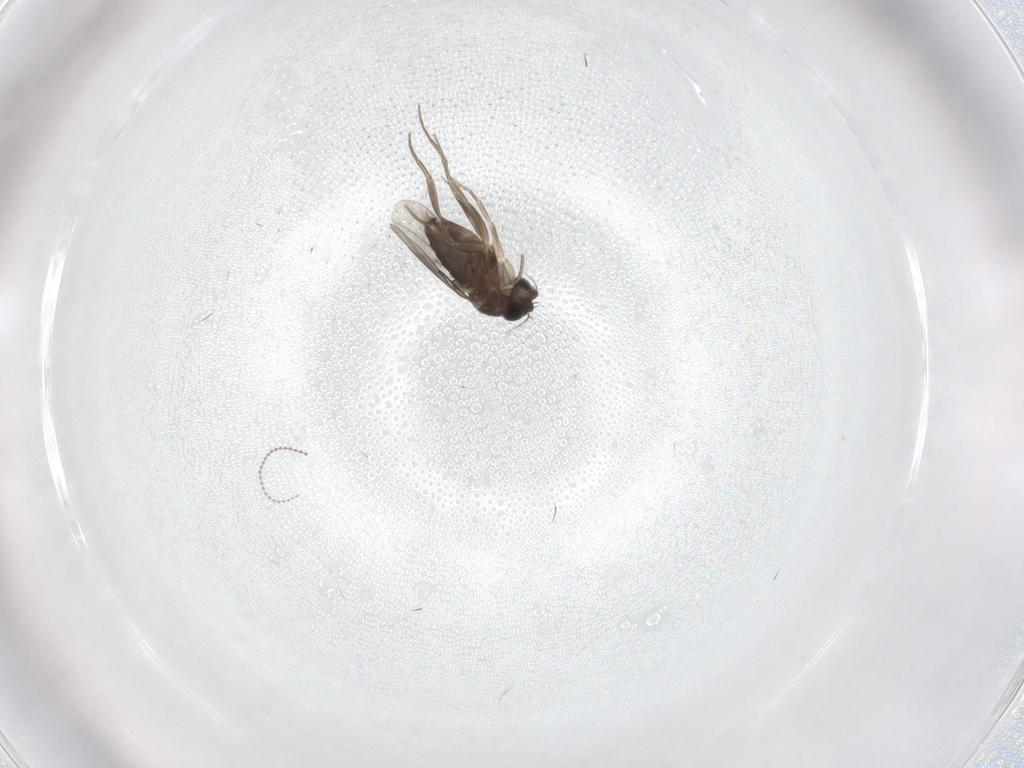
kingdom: Animalia
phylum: Arthropoda
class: Insecta
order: Diptera
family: Phoridae
